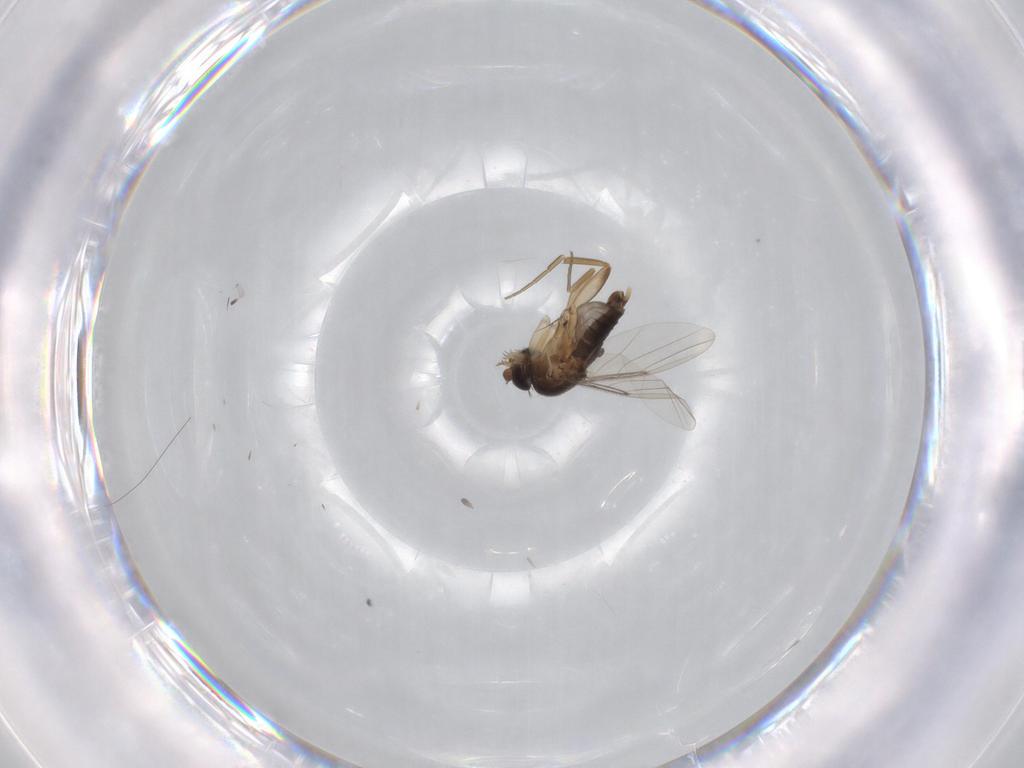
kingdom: Animalia
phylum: Arthropoda
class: Insecta
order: Diptera
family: Phoridae
